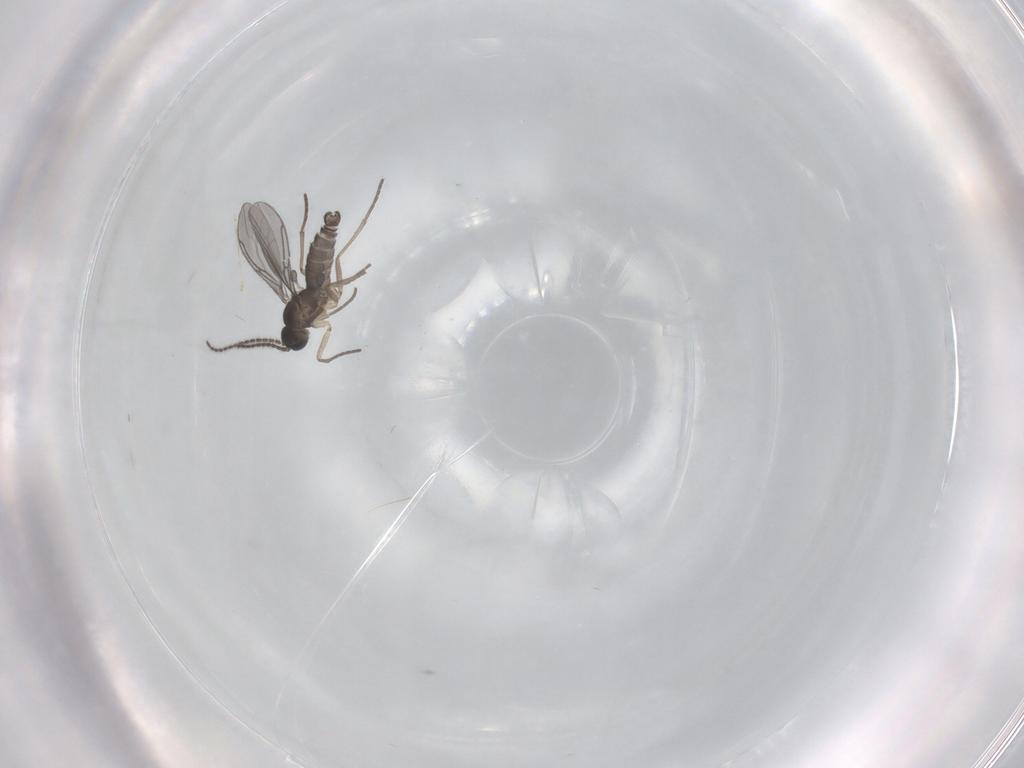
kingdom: Animalia
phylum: Arthropoda
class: Insecta
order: Diptera
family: Cecidomyiidae
